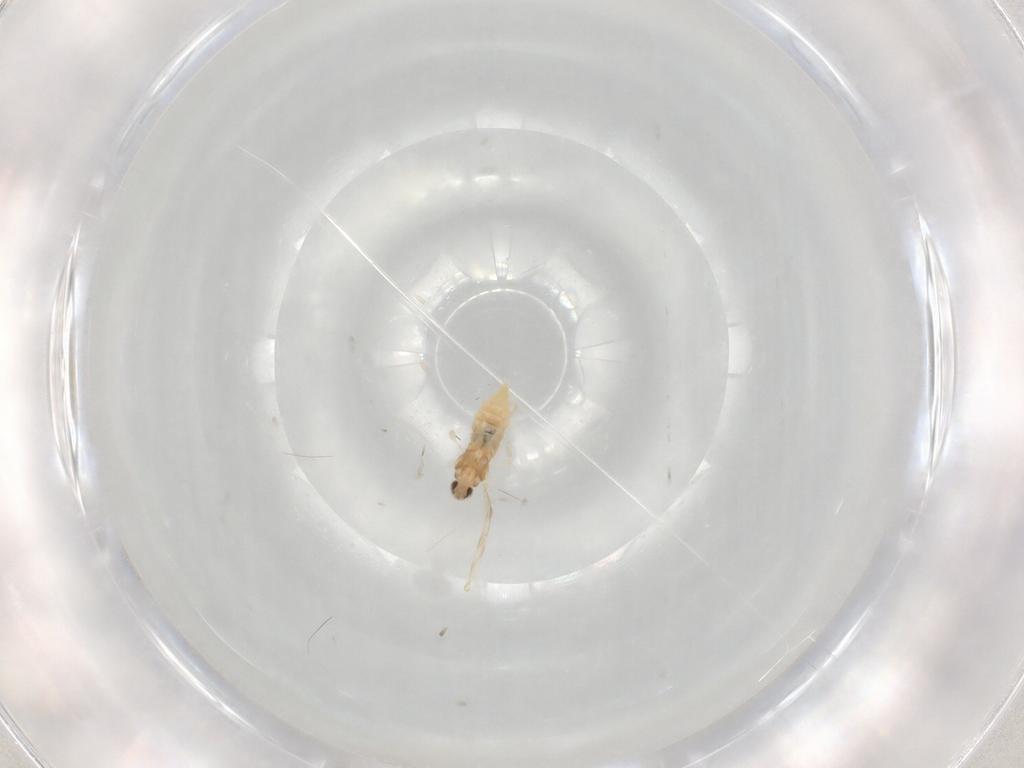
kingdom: Animalia
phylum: Arthropoda
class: Insecta
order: Diptera
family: Cecidomyiidae
